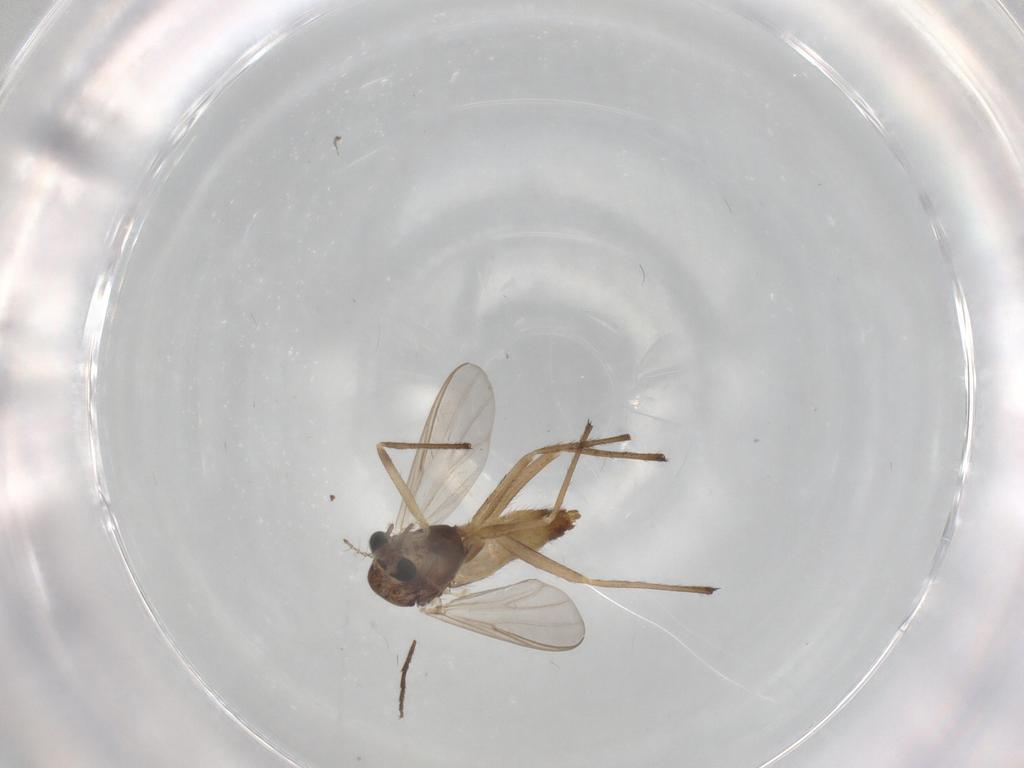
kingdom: Animalia
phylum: Arthropoda
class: Insecta
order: Diptera
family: Chironomidae
